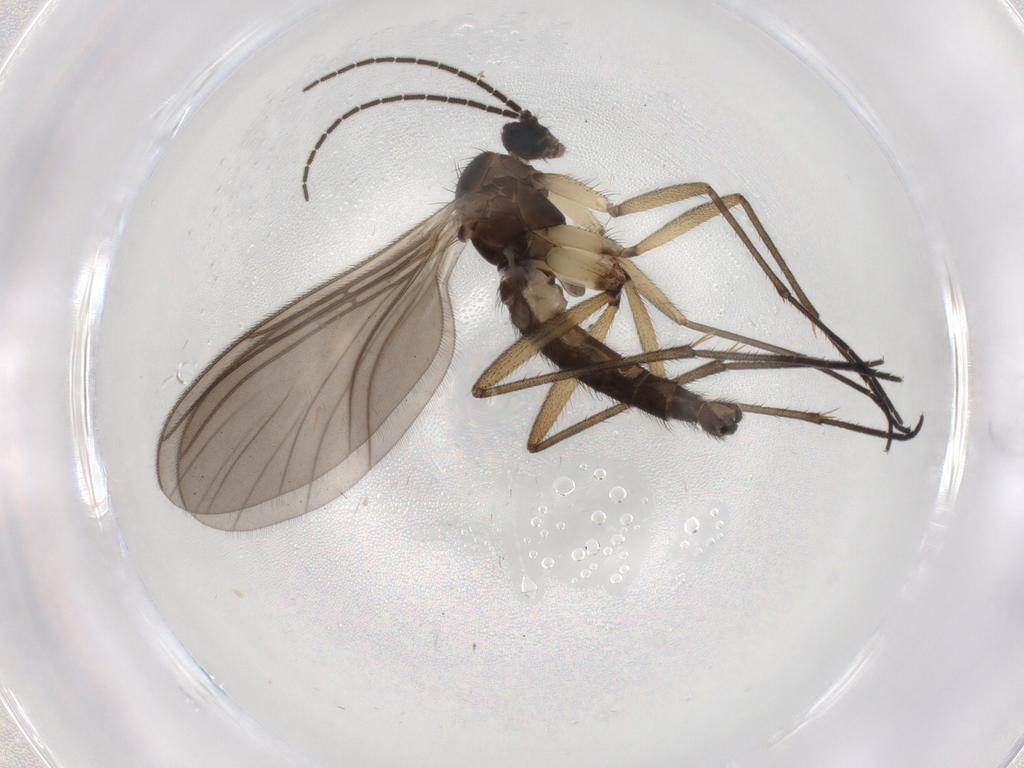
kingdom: Animalia
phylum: Arthropoda
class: Insecta
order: Diptera
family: Sciaridae
